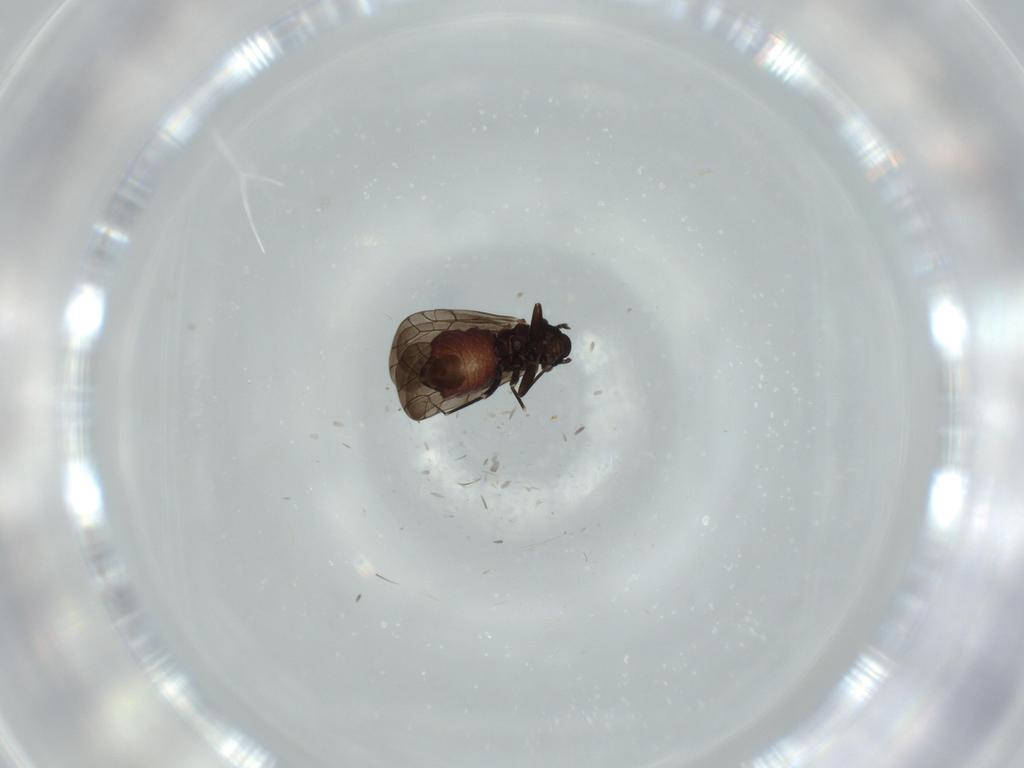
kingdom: Animalia
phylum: Arthropoda
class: Insecta
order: Psocodea
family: Lepidopsocidae
